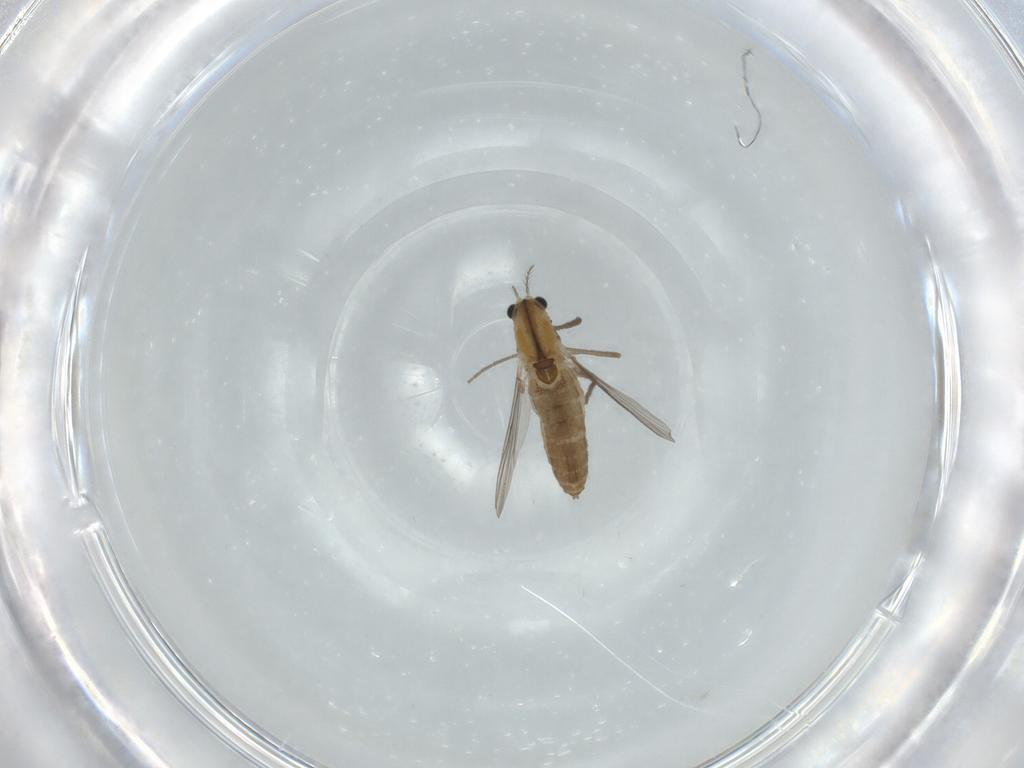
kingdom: Animalia
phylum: Arthropoda
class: Insecta
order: Diptera
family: Chironomidae
